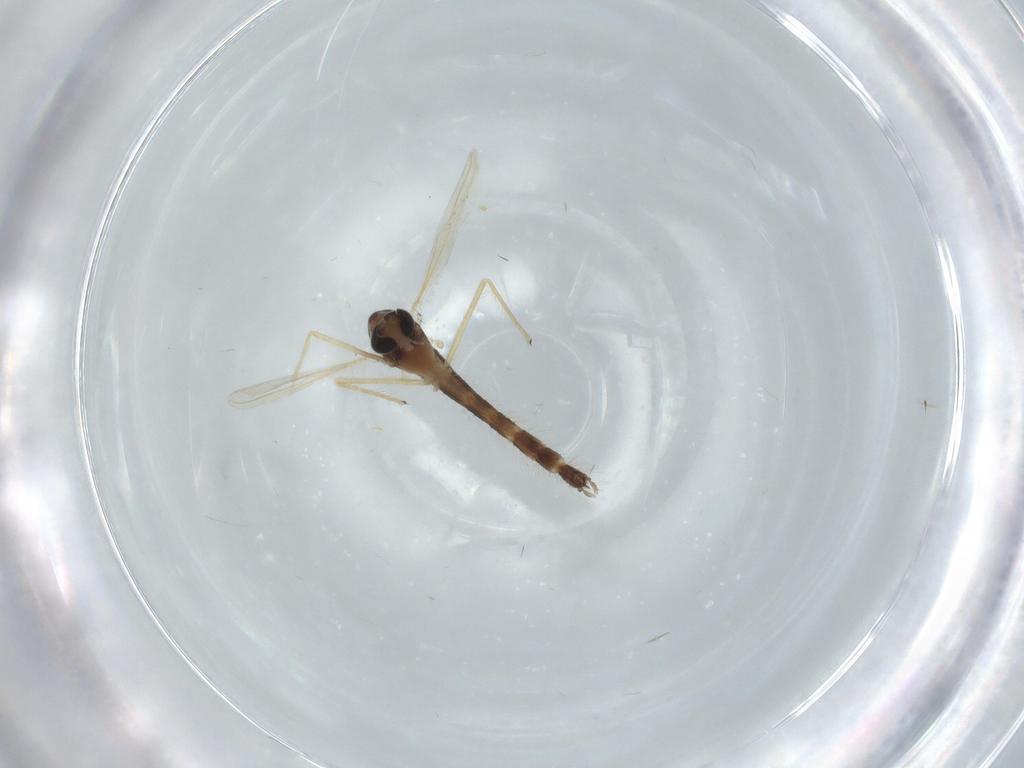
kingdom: Animalia
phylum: Arthropoda
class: Insecta
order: Diptera
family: Chironomidae
